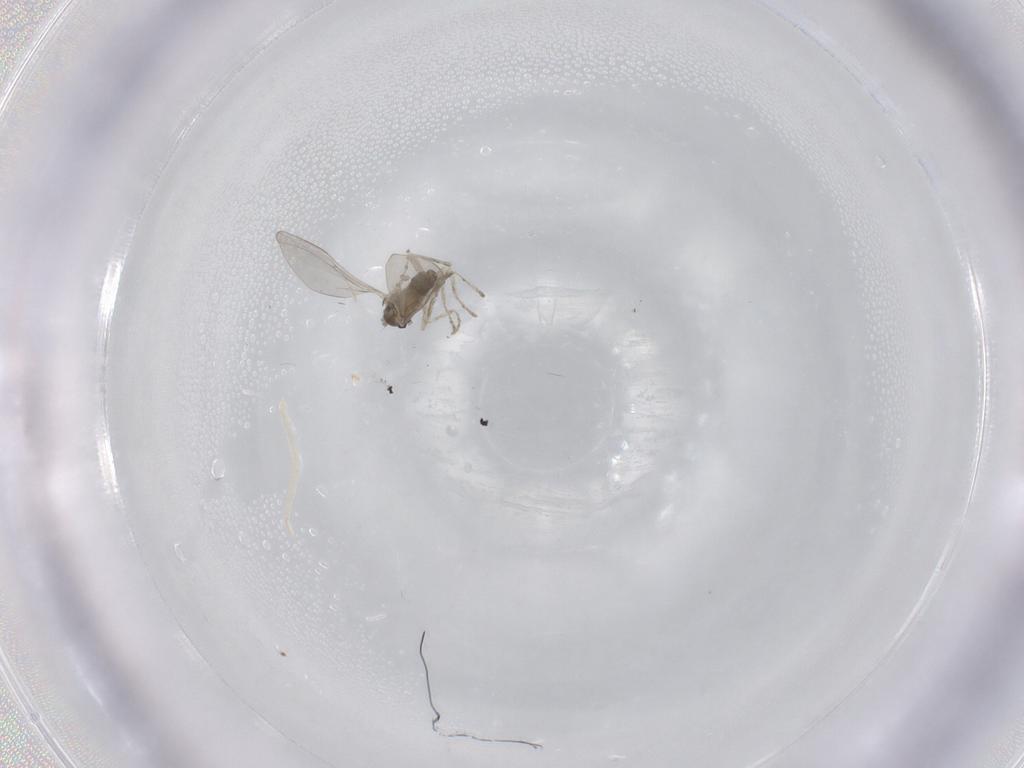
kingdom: Animalia
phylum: Arthropoda
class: Insecta
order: Diptera
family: Cecidomyiidae
